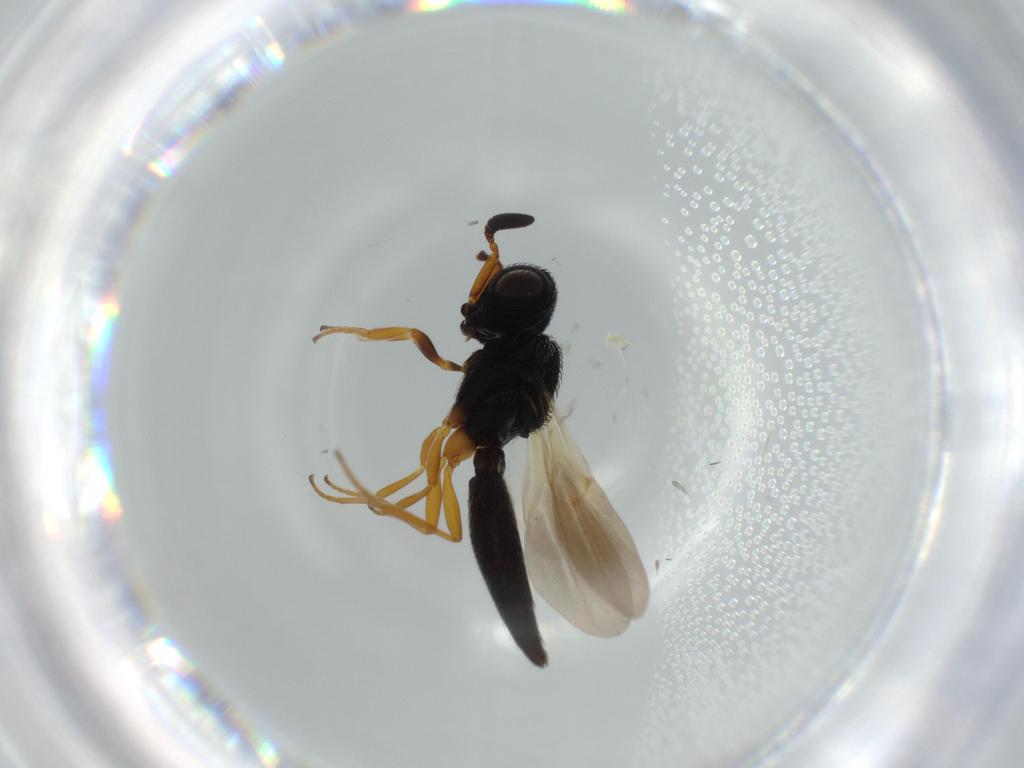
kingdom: Animalia
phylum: Arthropoda
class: Insecta
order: Hymenoptera
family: Scelionidae
